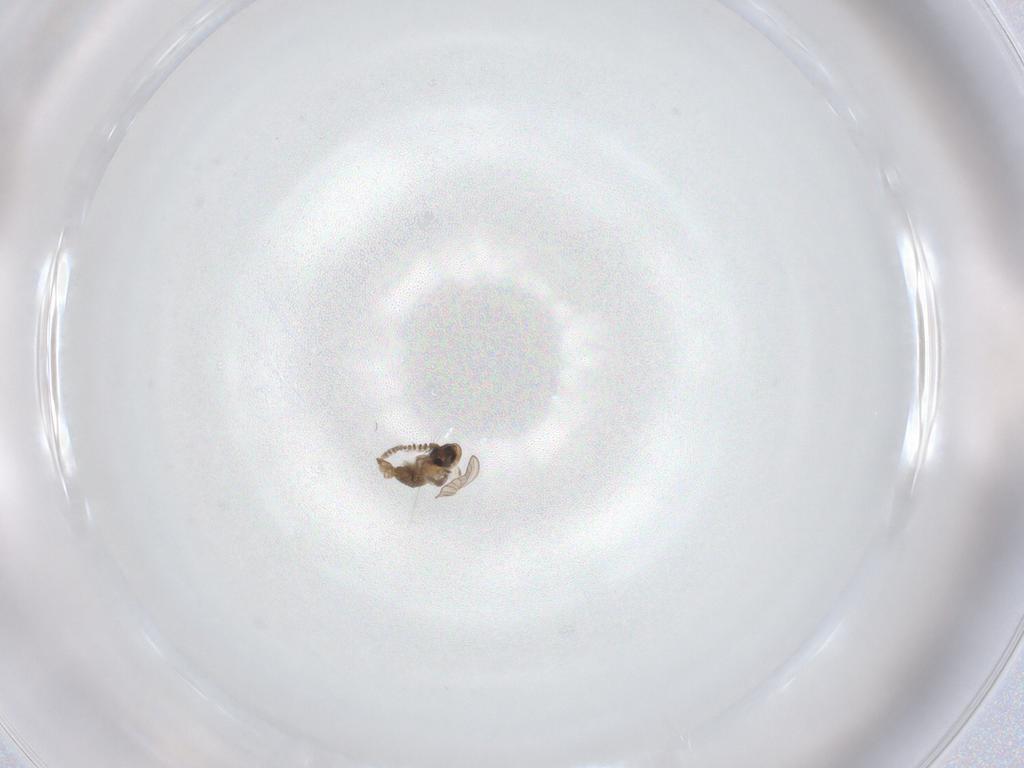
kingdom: Animalia
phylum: Arthropoda
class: Insecta
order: Diptera
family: Psychodidae
